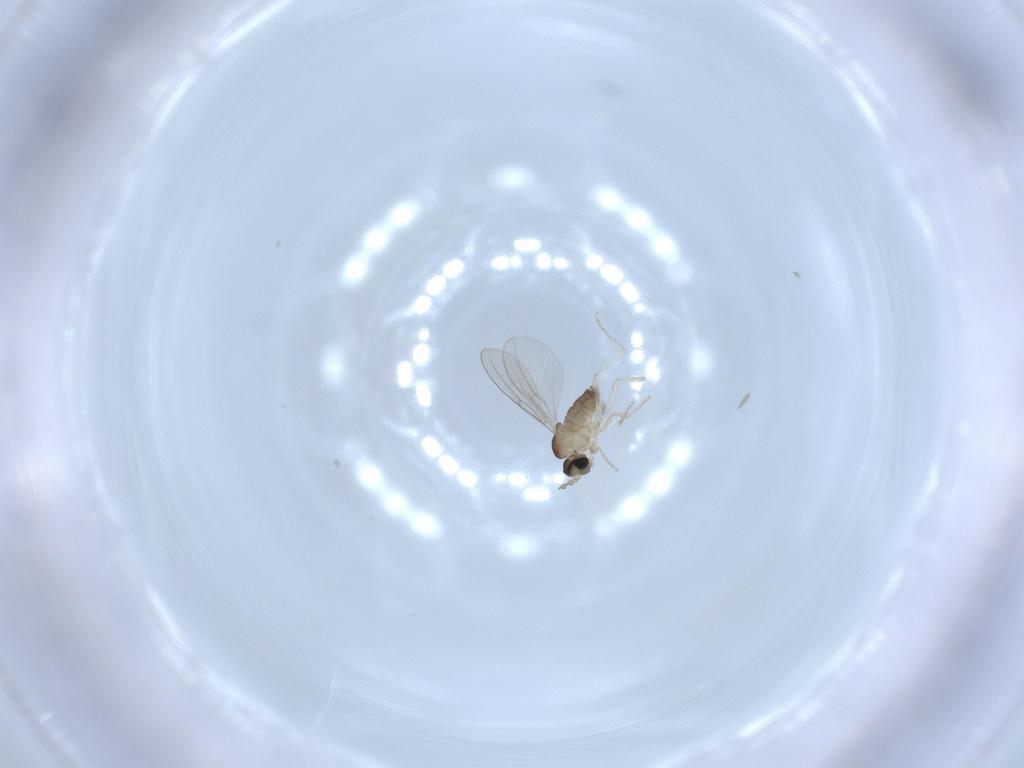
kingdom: Animalia
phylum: Arthropoda
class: Insecta
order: Diptera
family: Cecidomyiidae
